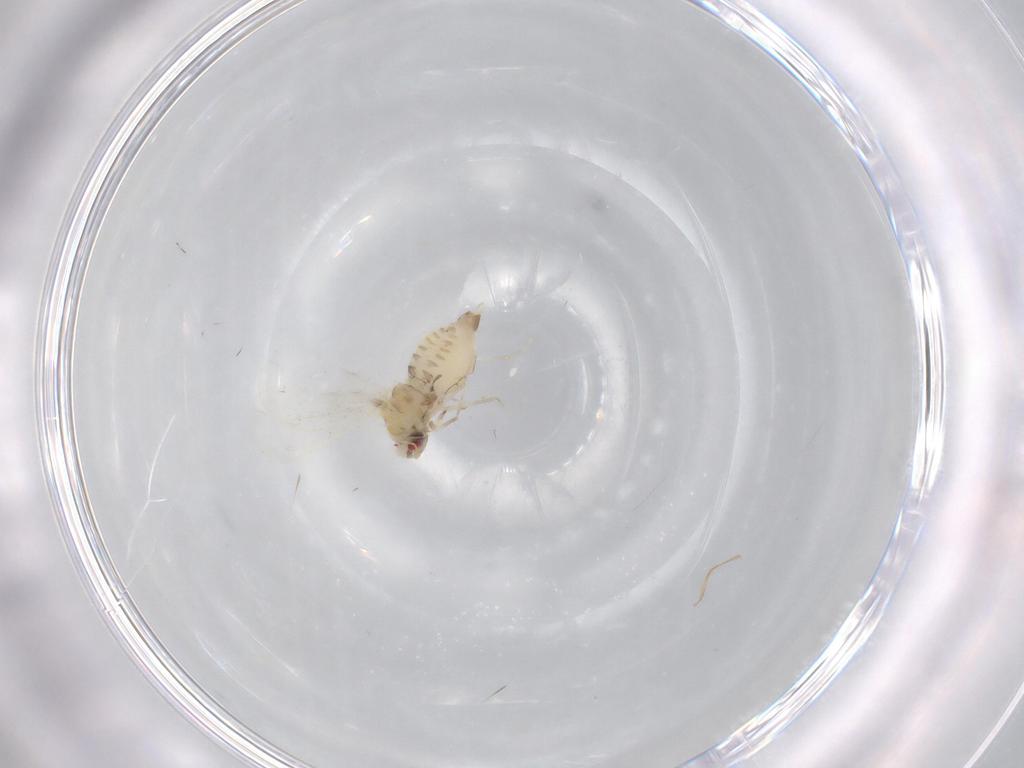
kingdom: Animalia
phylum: Arthropoda
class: Insecta
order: Hemiptera
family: Aleyrodidae
